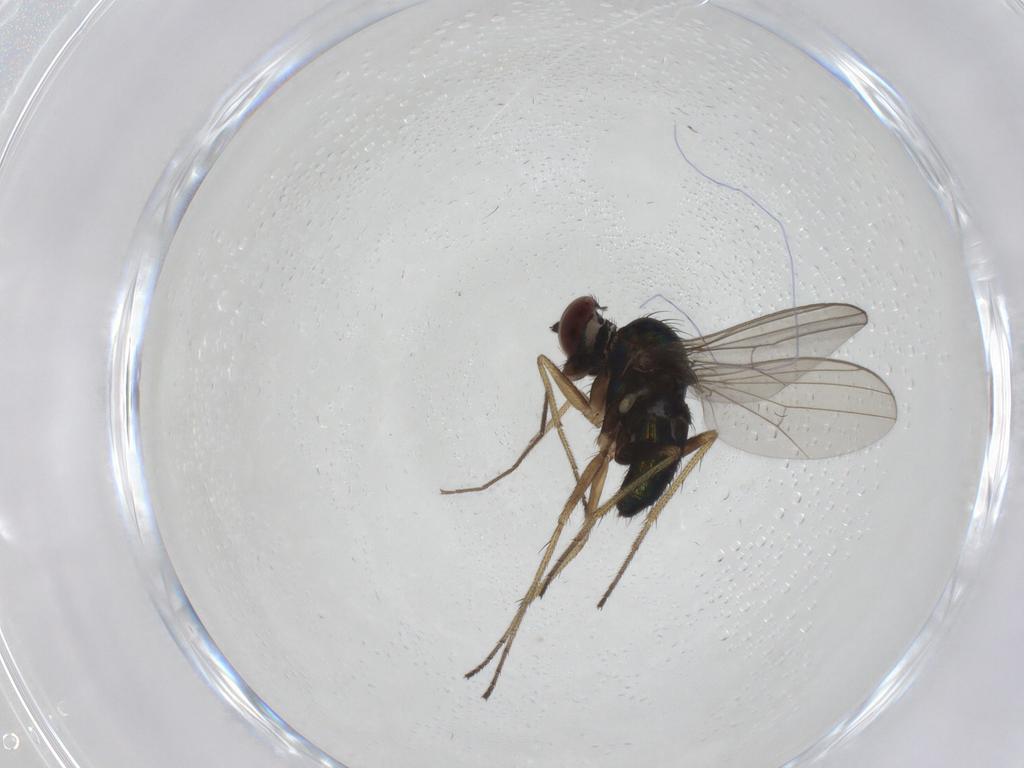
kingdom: Animalia
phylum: Arthropoda
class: Insecta
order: Diptera
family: Dolichopodidae
